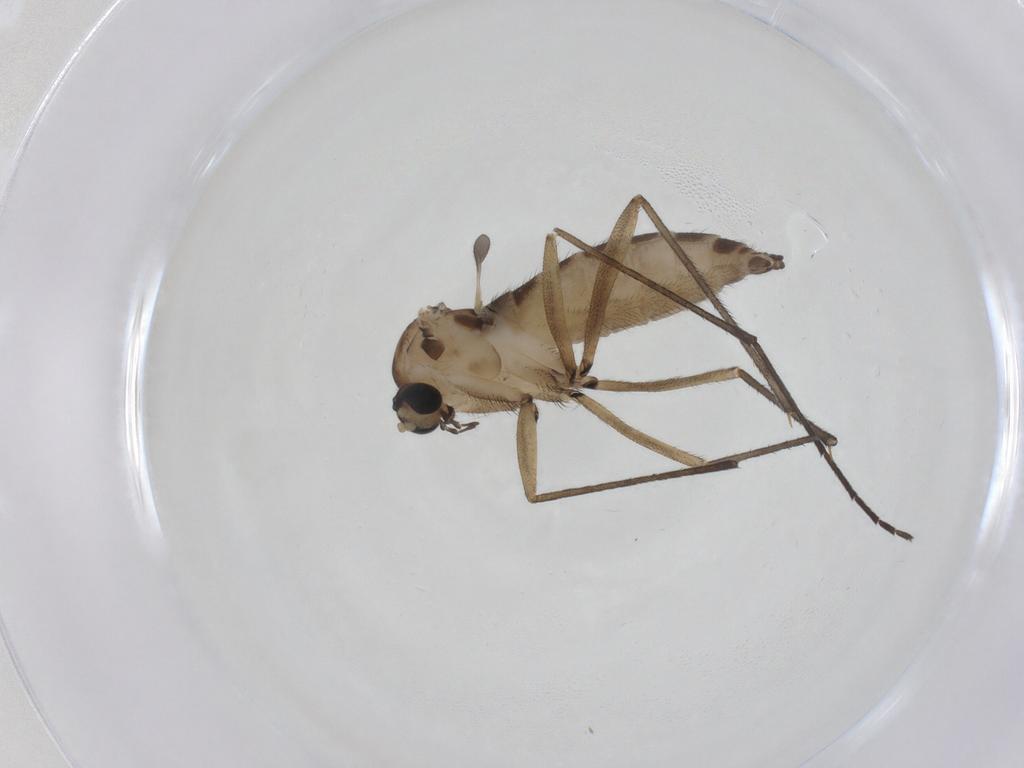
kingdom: Animalia
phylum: Arthropoda
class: Insecta
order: Diptera
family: Sciaridae
